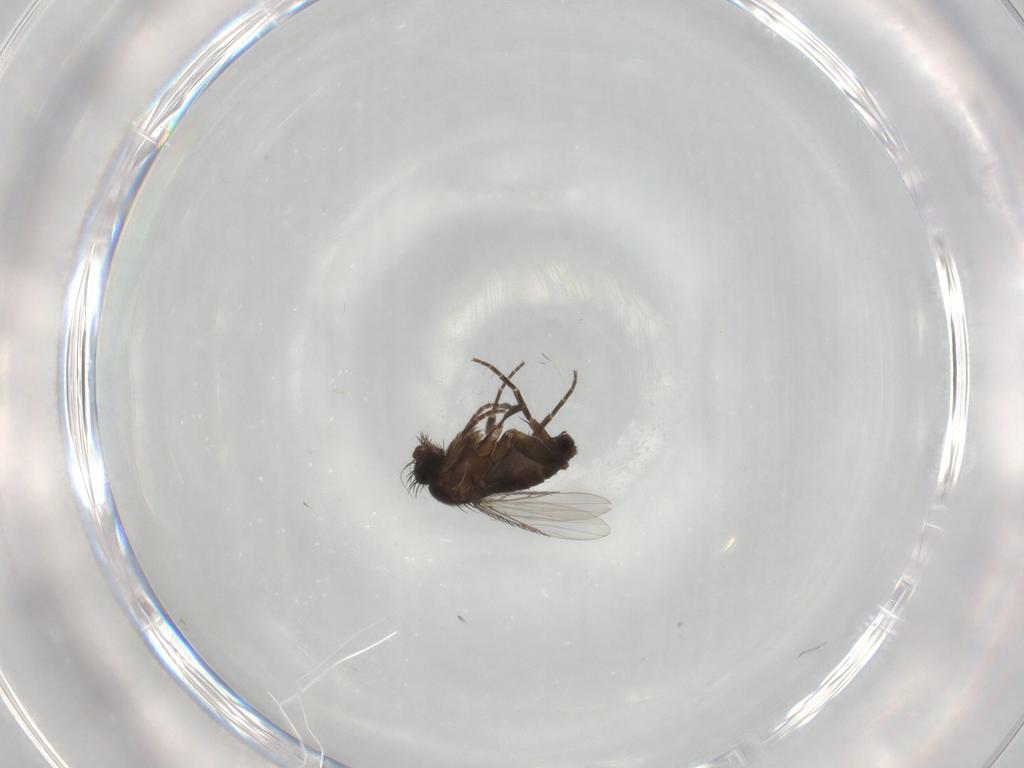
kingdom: Animalia
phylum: Arthropoda
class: Insecta
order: Diptera
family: Phoridae
